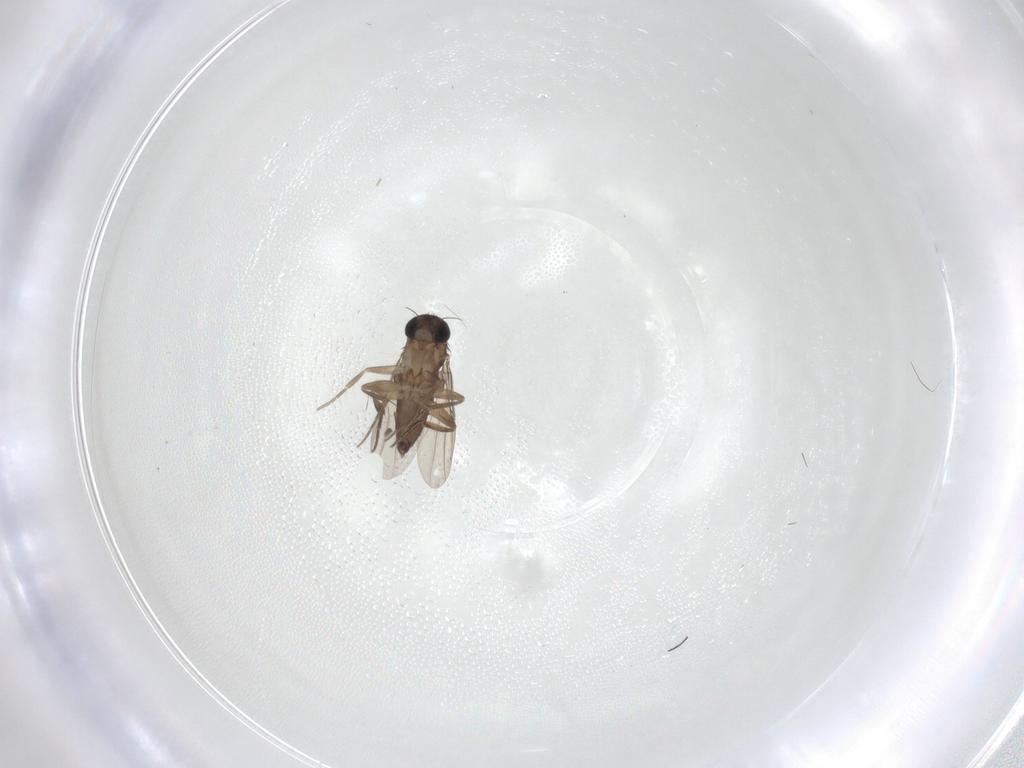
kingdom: Animalia
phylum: Arthropoda
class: Insecta
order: Diptera
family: Phoridae
